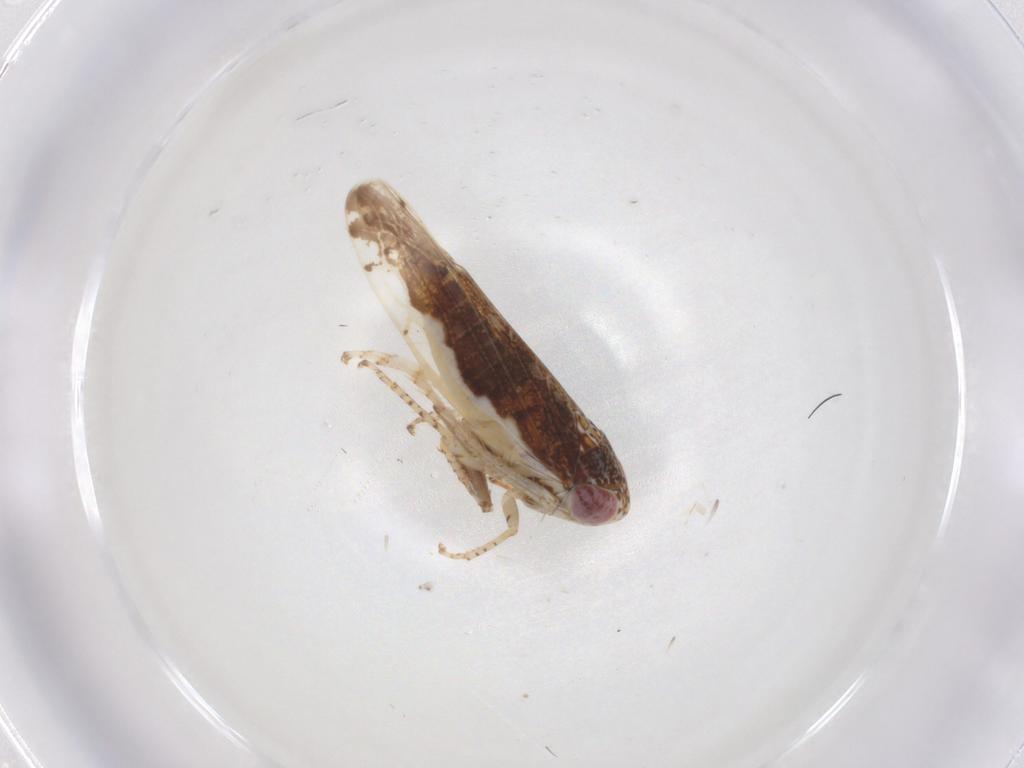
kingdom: Animalia
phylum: Arthropoda
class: Insecta
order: Hemiptera
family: Cicadellidae
